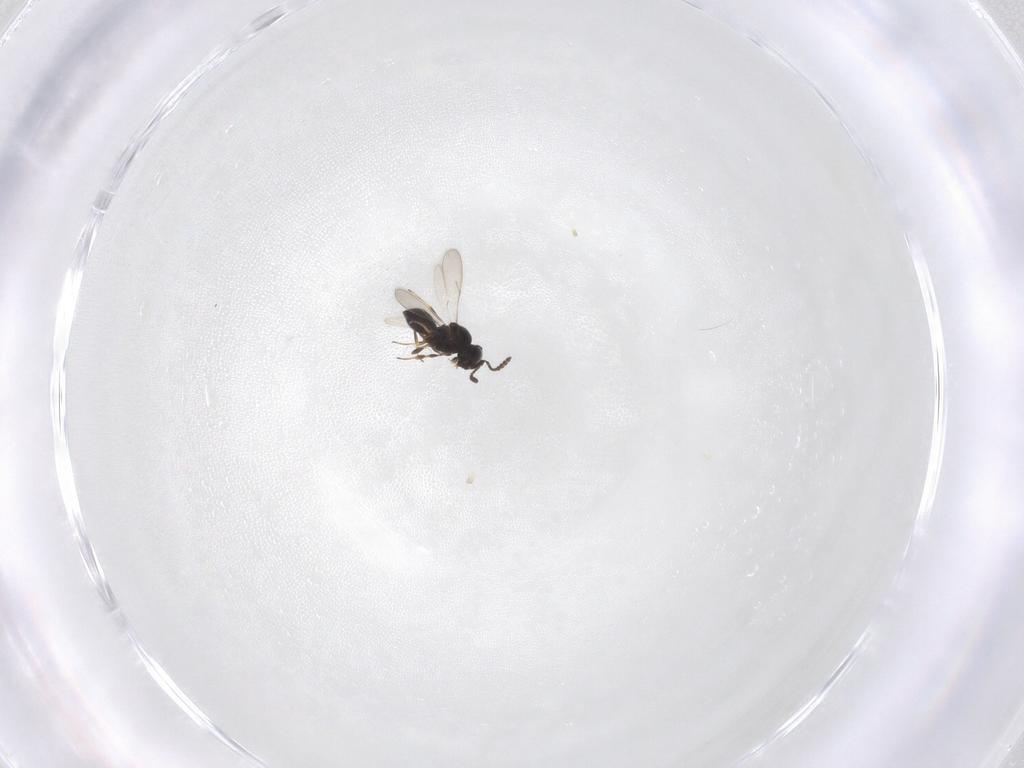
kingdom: Animalia
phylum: Arthropoda
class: Insecta
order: Hymenoptera
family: Scelionidae
